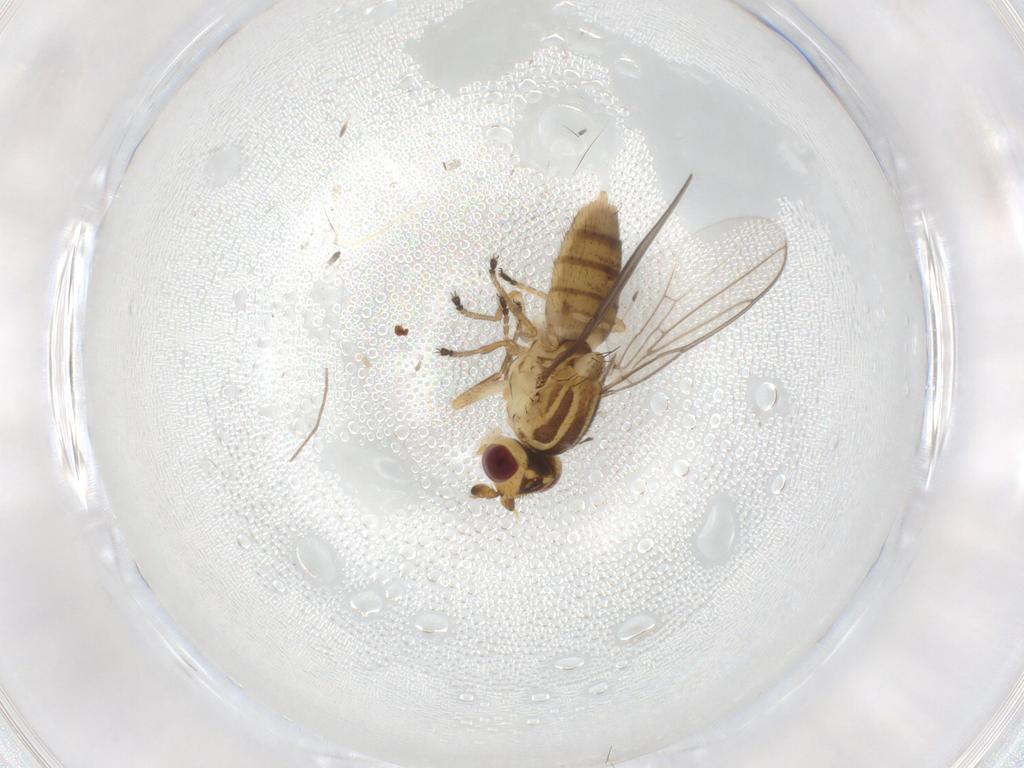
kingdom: Animalia
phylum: Arthropoda
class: Insecta
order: Diptera
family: Chloropidae
